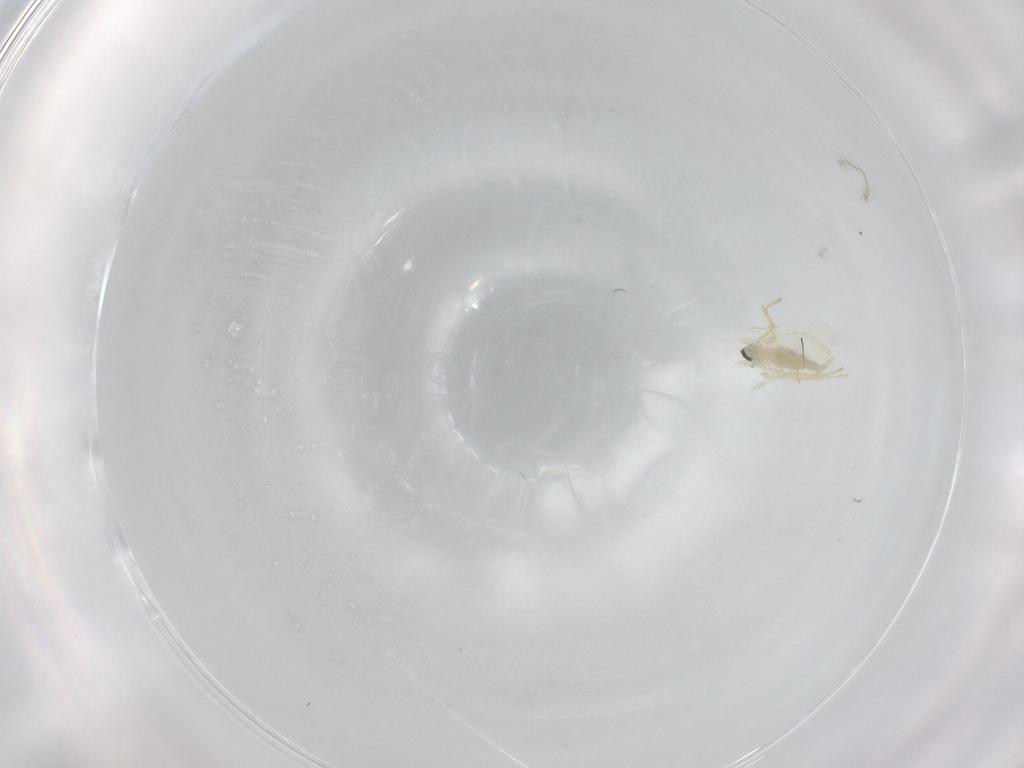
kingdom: Animalia
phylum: Arthropoda
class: Insecta
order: Diptera
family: Cecidomyiidae
